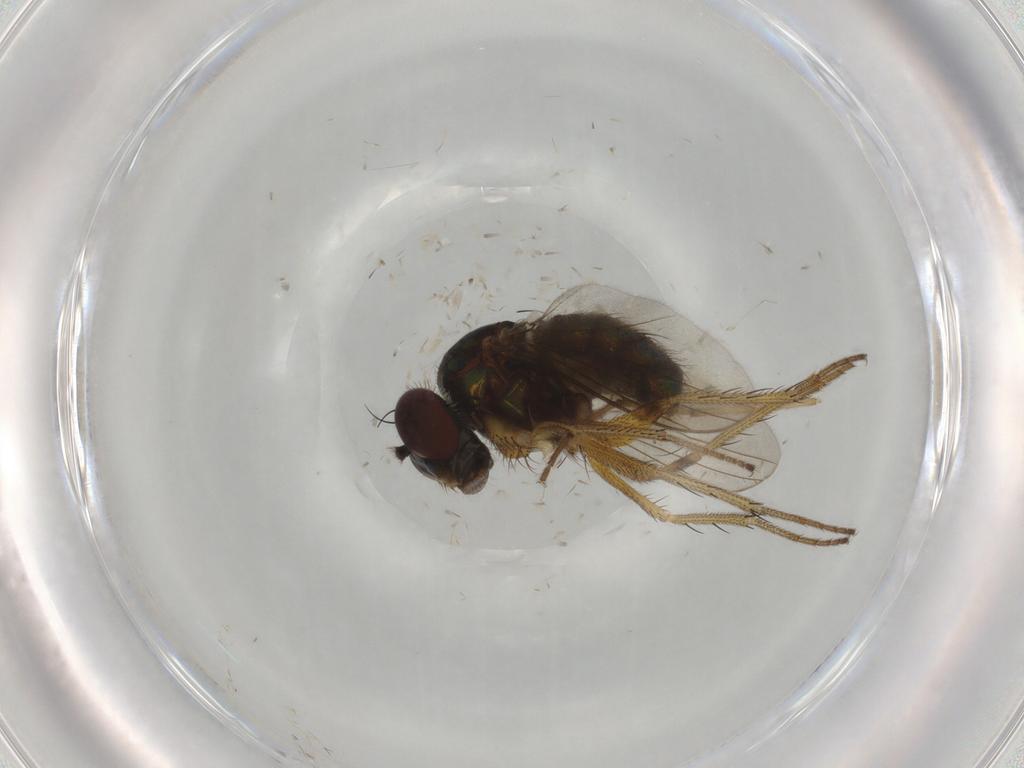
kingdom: Animalia
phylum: Arthropoda
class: Insecta
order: Diptera
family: Dolichopodidae
